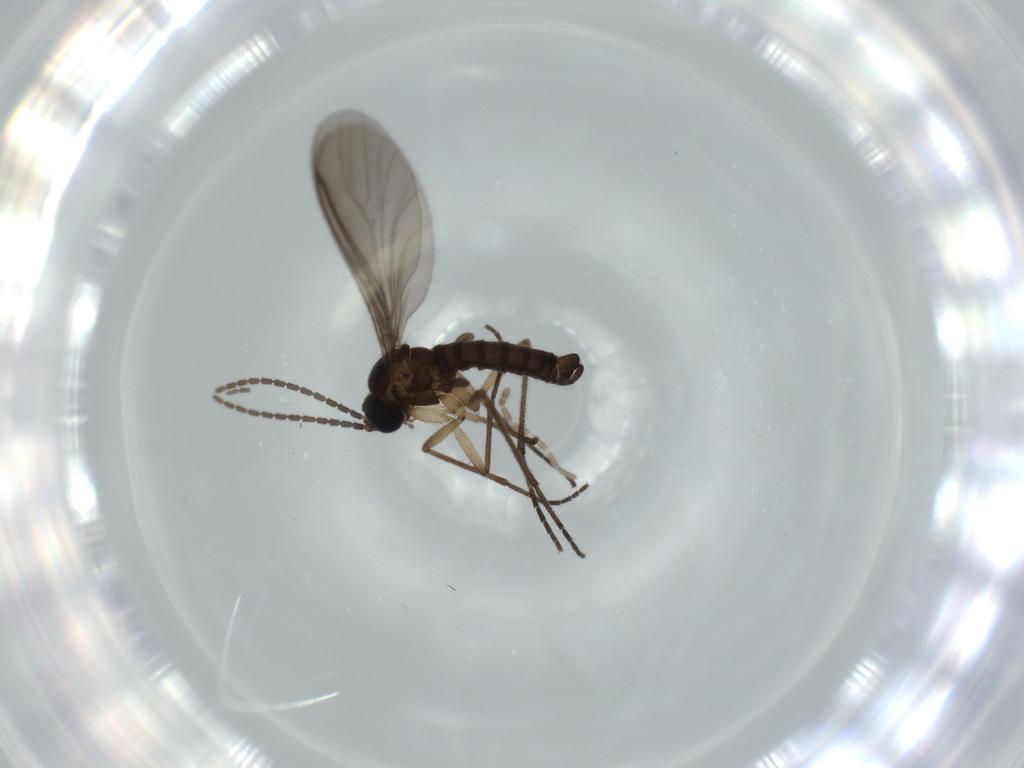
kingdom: Animalia
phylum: Arthropoda
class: Insecta
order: Diptera
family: Sciaridae
